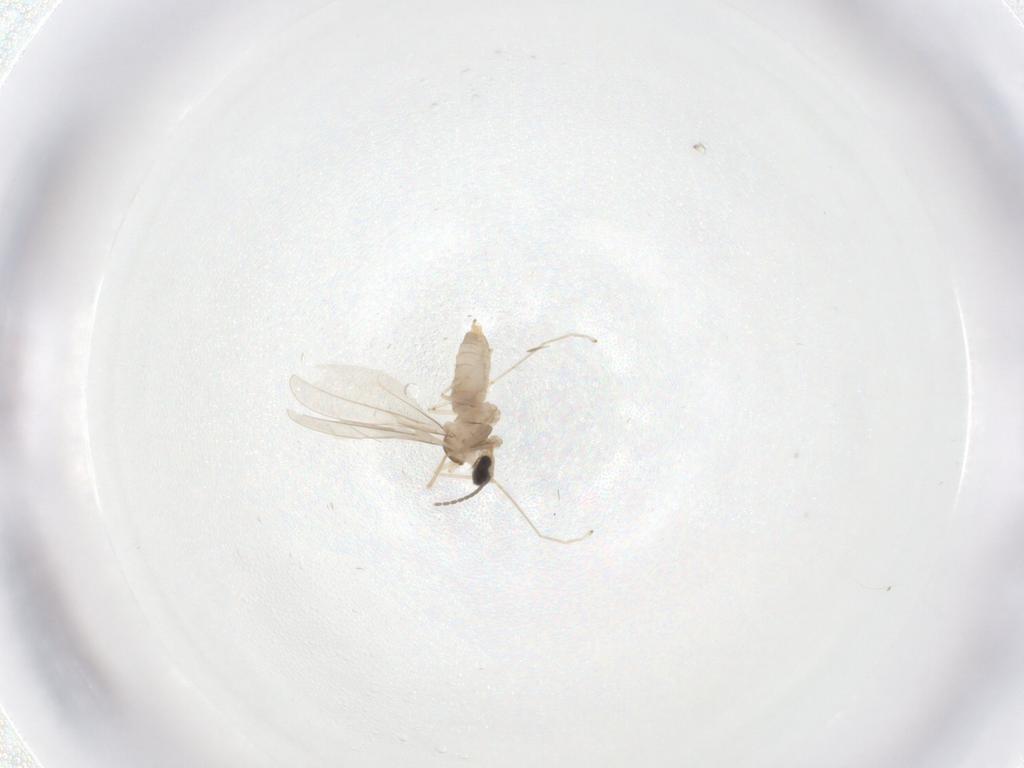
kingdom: Animalia
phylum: Arthropoda
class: Insecta
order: Diptera
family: Cecidomyiidae
